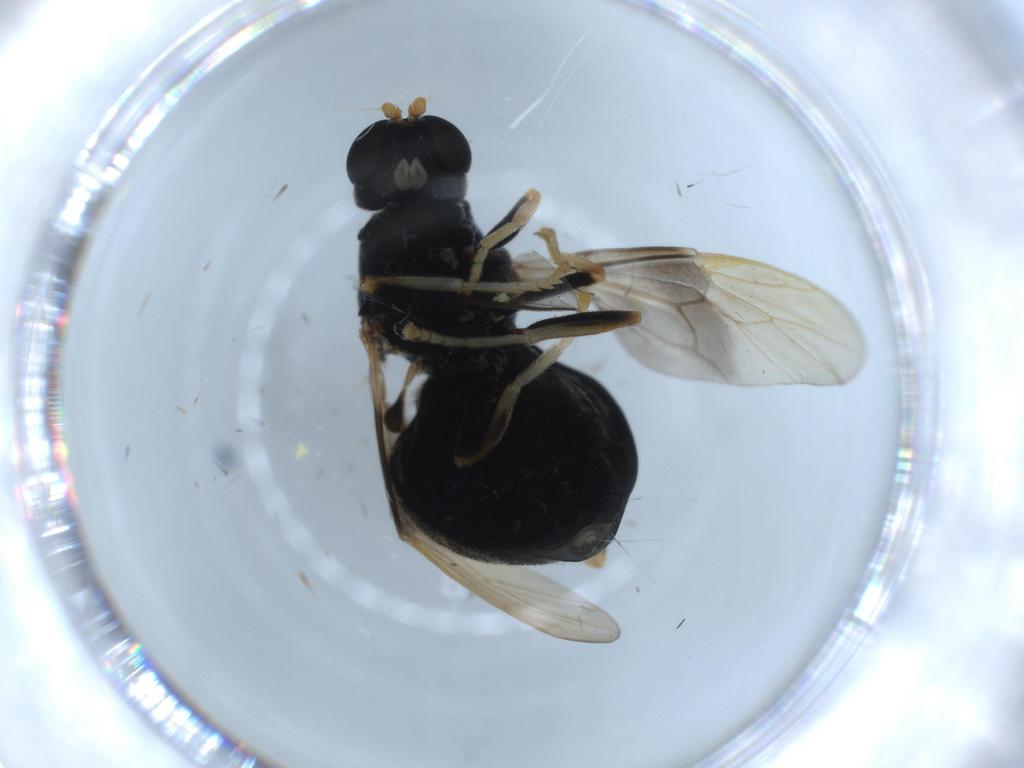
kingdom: Animalia
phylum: Arthropoda
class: Insecta
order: Diptera
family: Stratiomyidae
